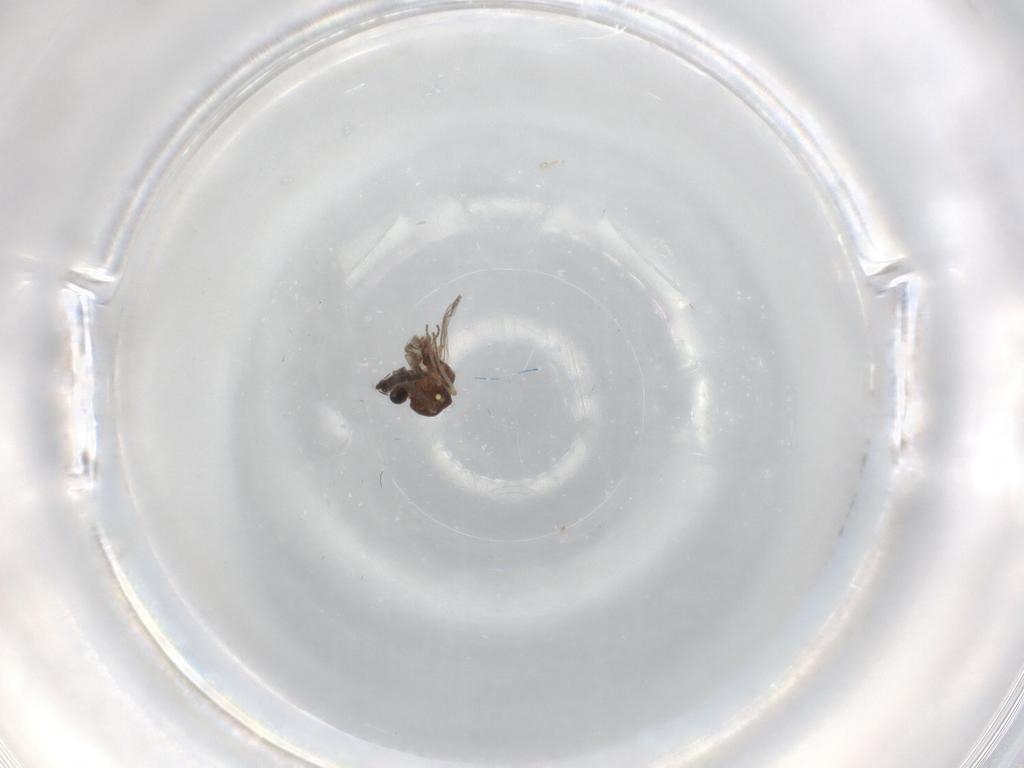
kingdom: Animalia
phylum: Arthropoda
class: Insecta
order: Diptera
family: Ceratopogonidae
